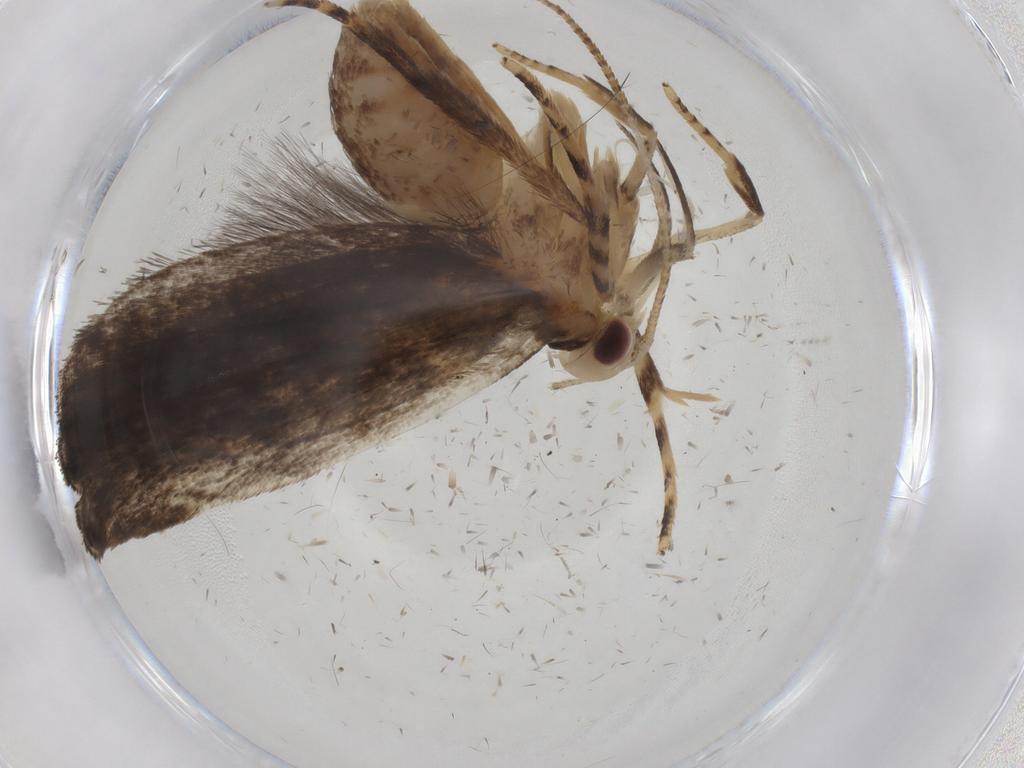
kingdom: Animalia
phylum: Arthropoda
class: Insecta
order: Lepidoptera
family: Gelechiidae
